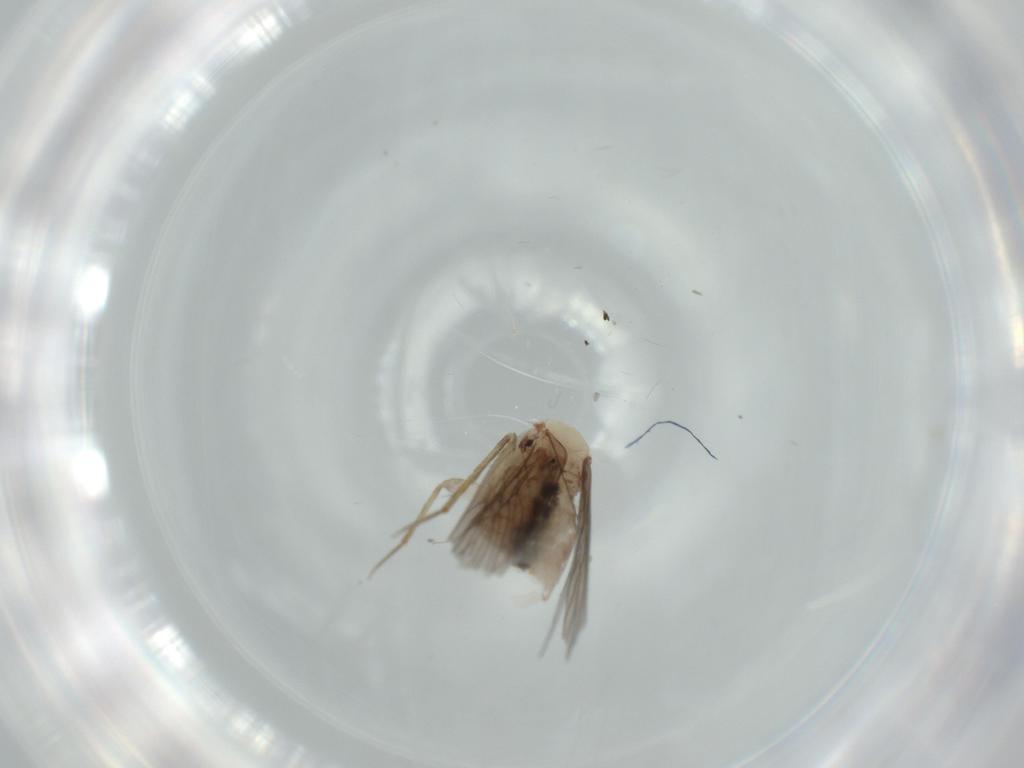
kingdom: Animalia
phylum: Arthropoda
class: Insecta
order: Psocodea
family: Lepidopsocidae
